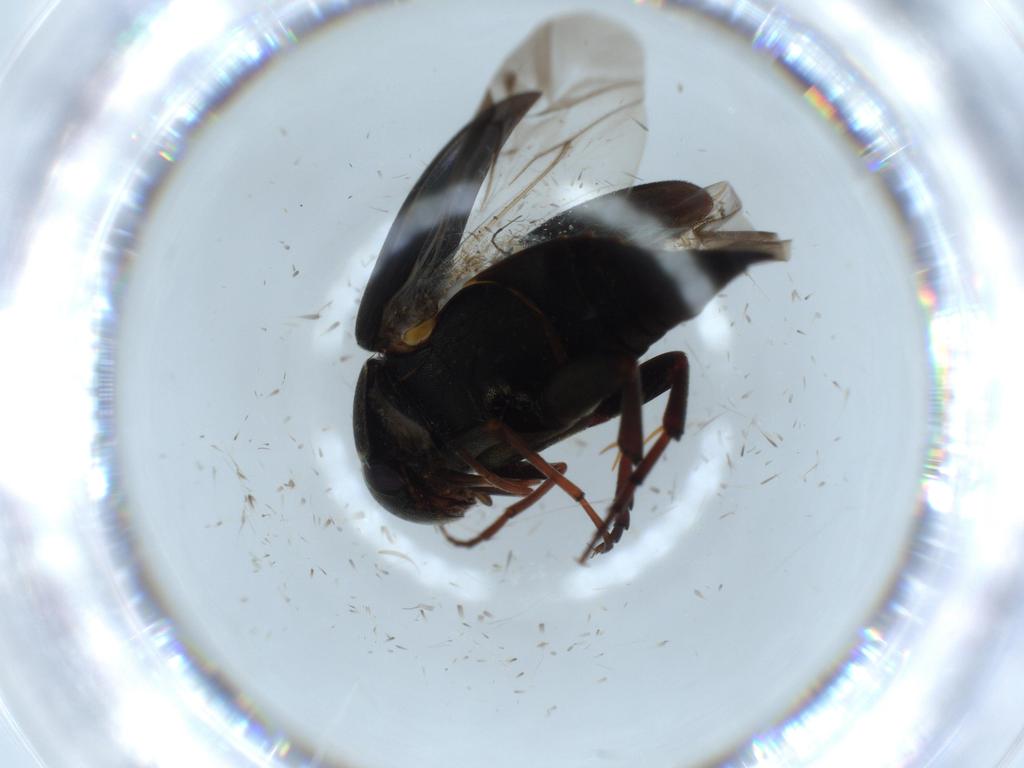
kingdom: Animalia
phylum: Arthropoda
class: Insecta
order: Coleoptera
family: Mordellidae
